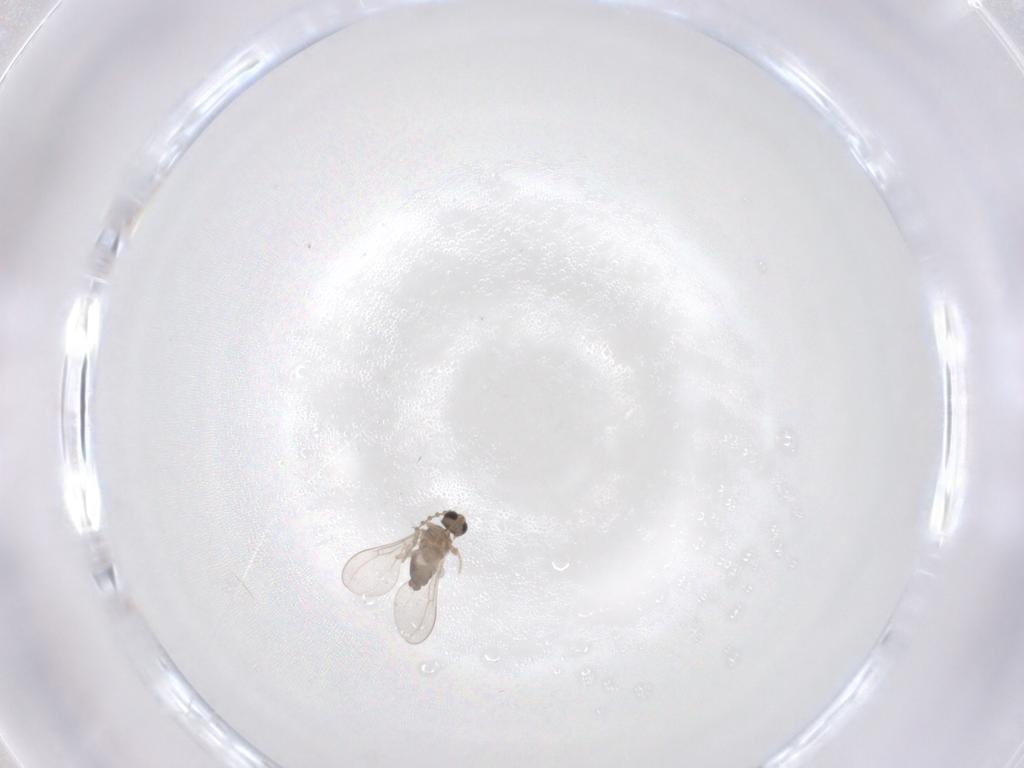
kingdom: Animalia
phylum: Arthropoda
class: Insecta
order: Diptera
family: Cecidomyiidae
